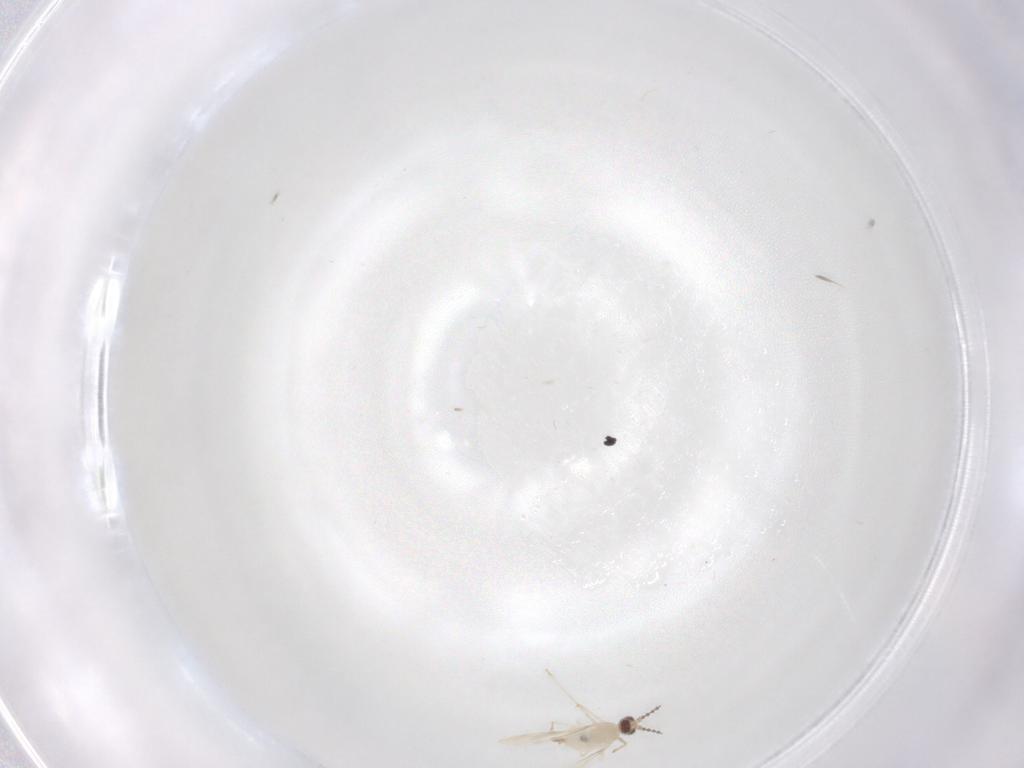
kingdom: Animalia
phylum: Arthropoda
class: Insecta
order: Diptera
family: Cecidomyiidae
